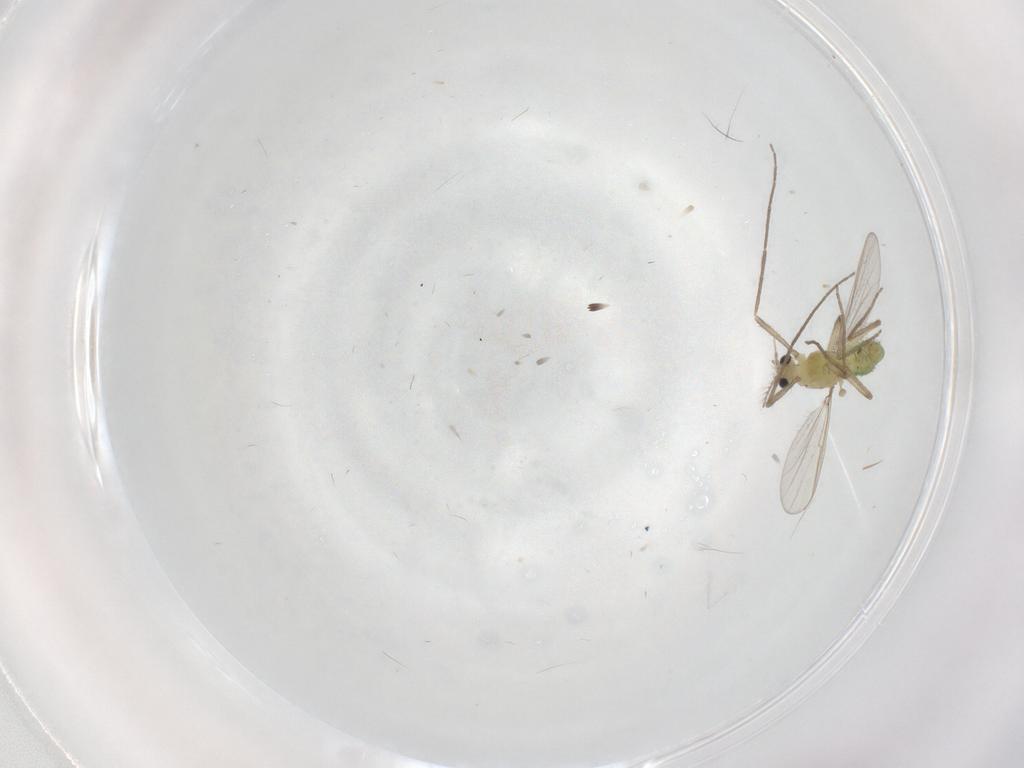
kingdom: Animalia
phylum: Arthropoda
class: Insecta
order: Diptera
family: Chironomidae
